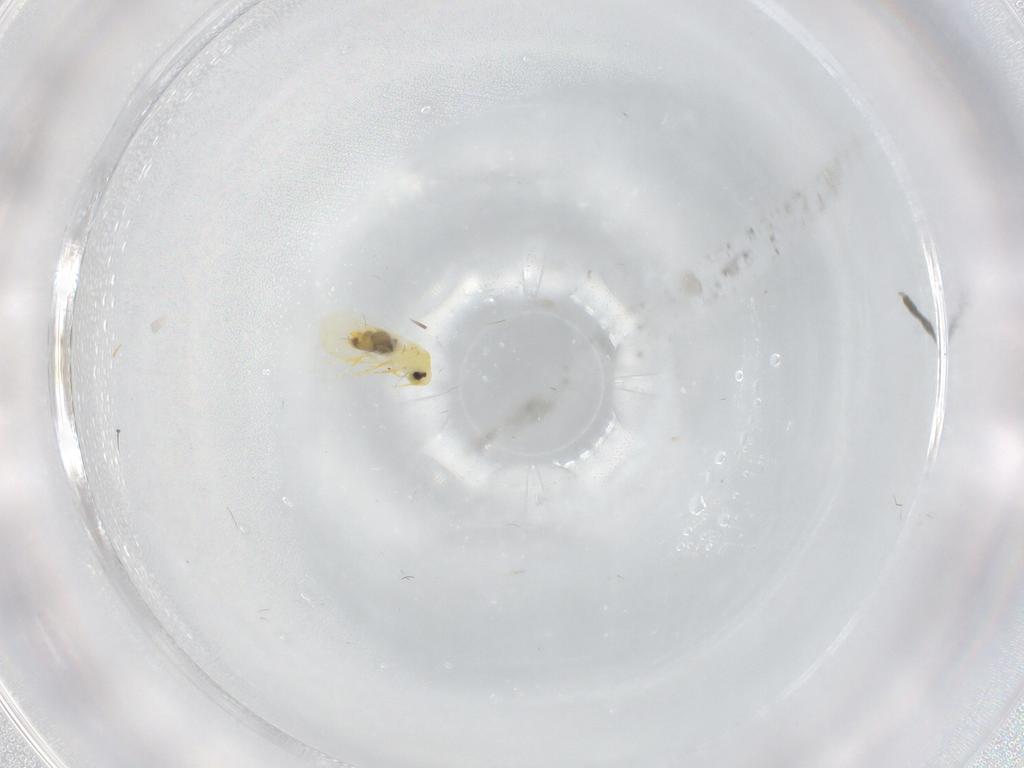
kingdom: Animalia
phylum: Arthropoda
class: Insecta
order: Hemiptera
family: Aleyrodidae
